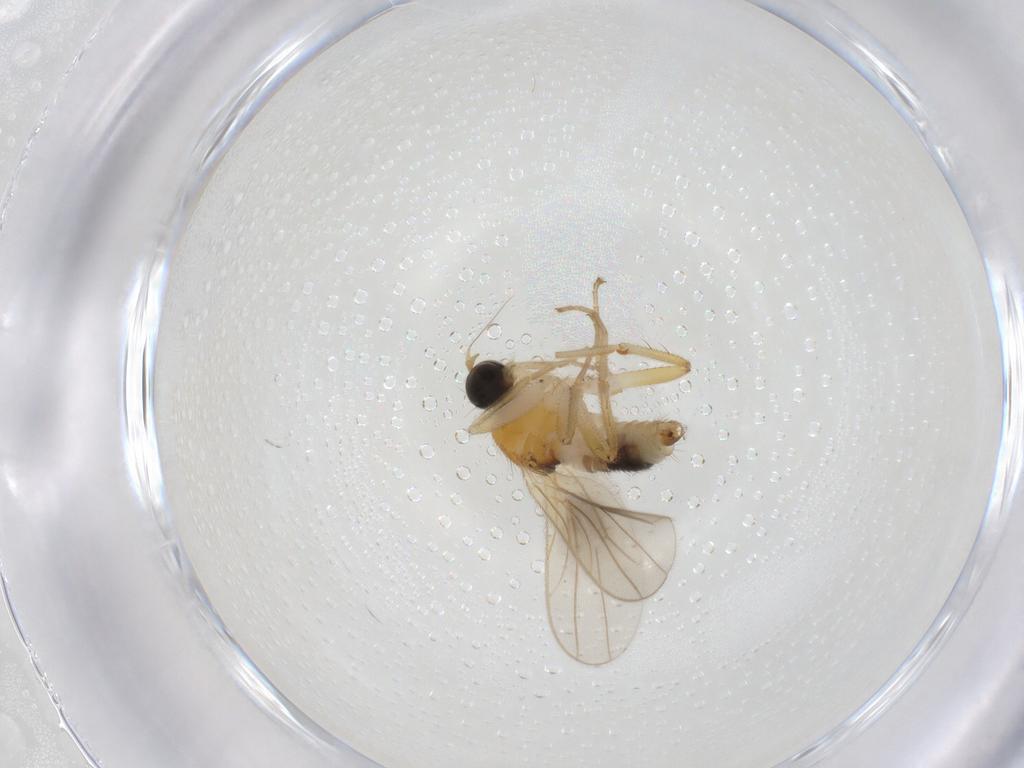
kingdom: Animalia
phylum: Arthropoda
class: Insecta
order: Diptera
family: Hybotidae
